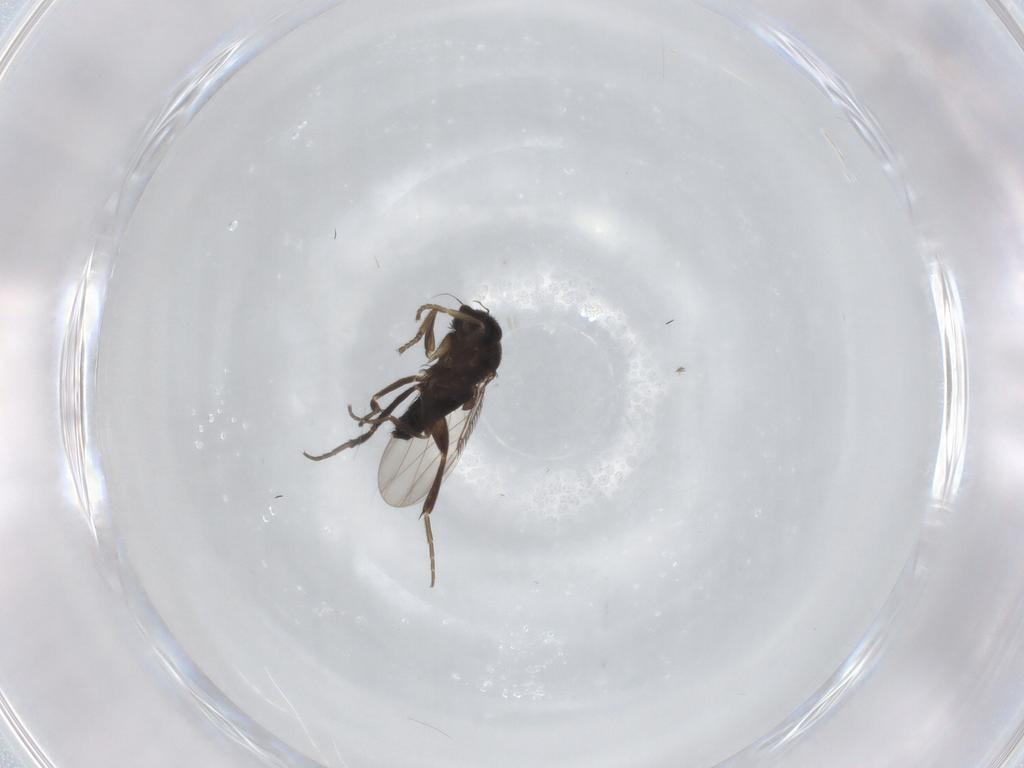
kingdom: Animalia
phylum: Arthropoda
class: Insecta
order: Diptera
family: Phoridae
